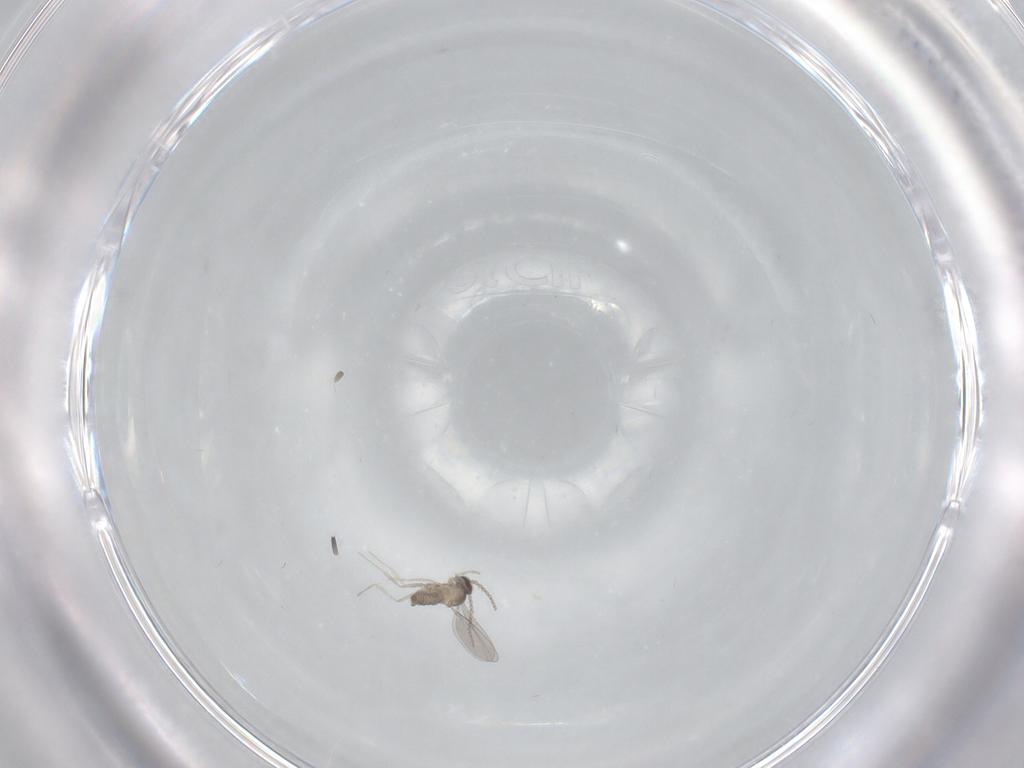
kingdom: Animalia
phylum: Arthropoda
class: Insecta
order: Diptera
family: Cecidomyiidae
